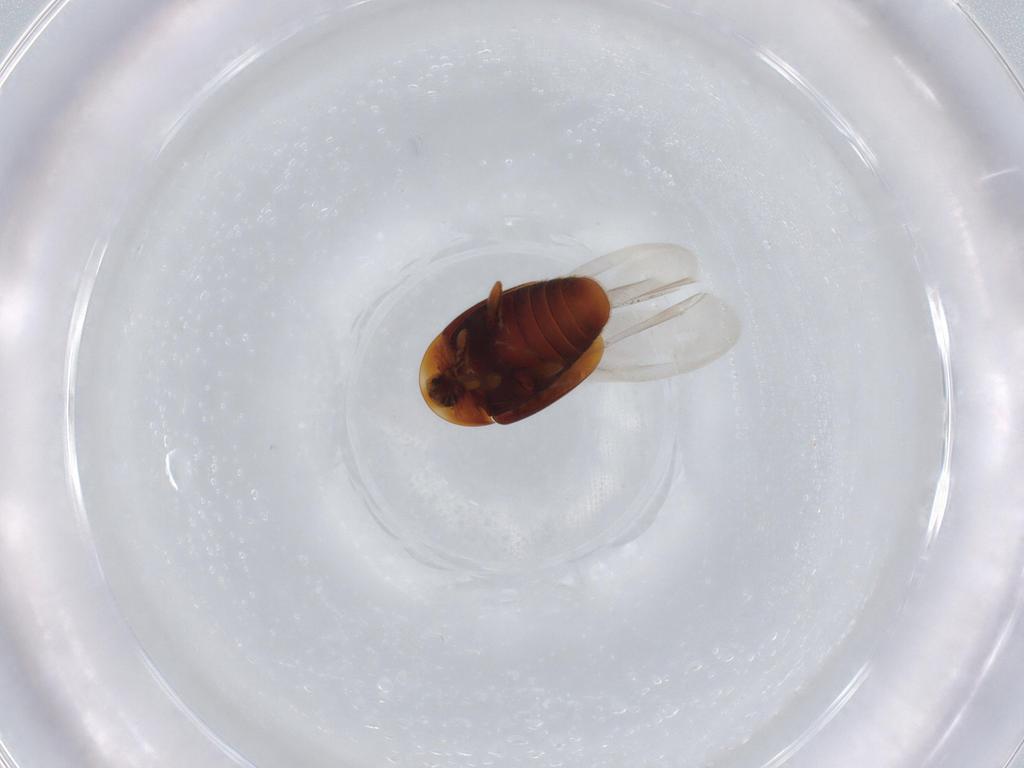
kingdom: Animalia
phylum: Arthropoda
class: Insecta
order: Coleoptera
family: Corylophidae
